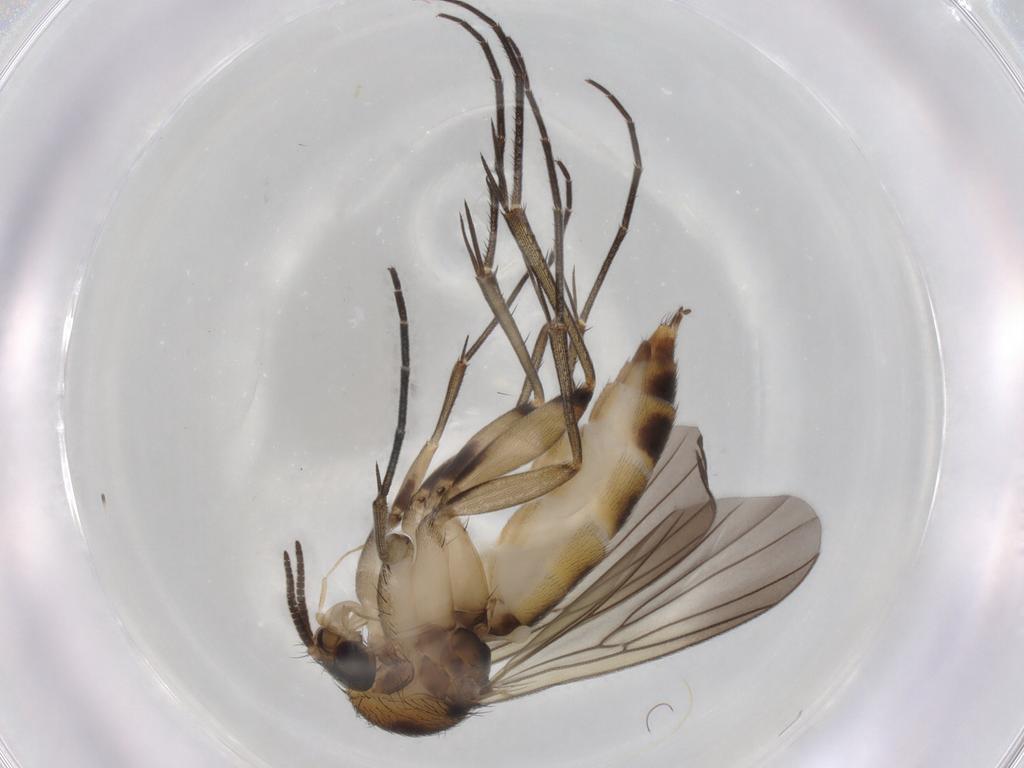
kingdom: Animalia
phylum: Arthropoda
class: Insecta
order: Diptera
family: Mycetophilidae
